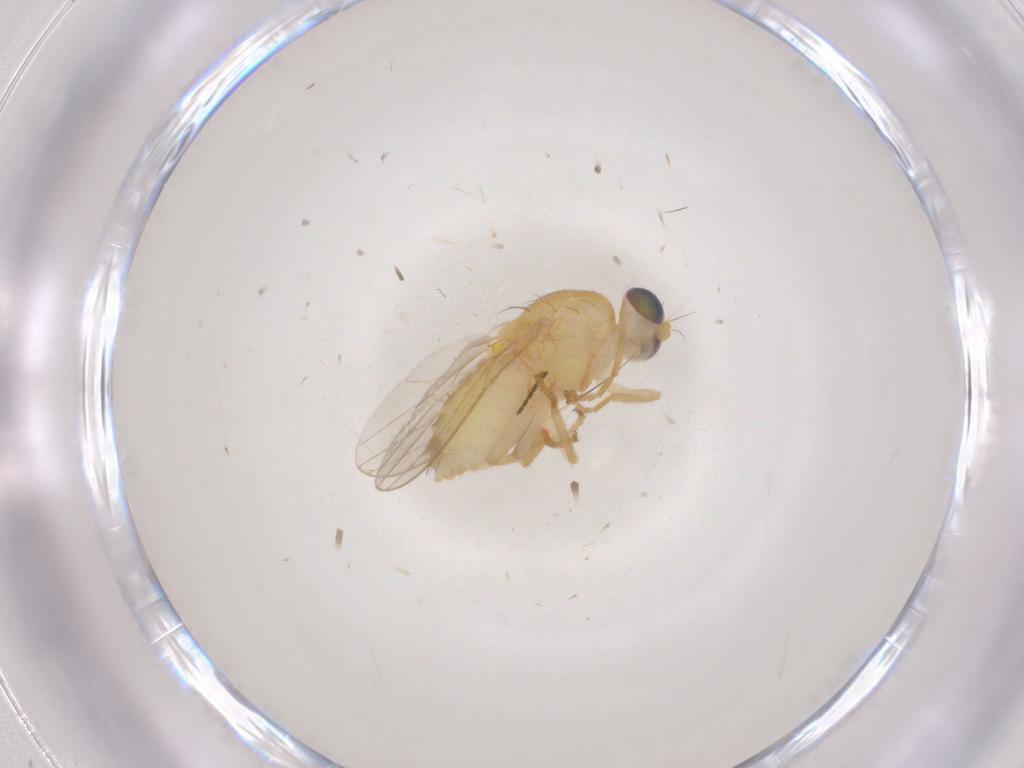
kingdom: Animalia
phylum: Arthropoda
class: Insecta
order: Diptera
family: Chyromyidae
